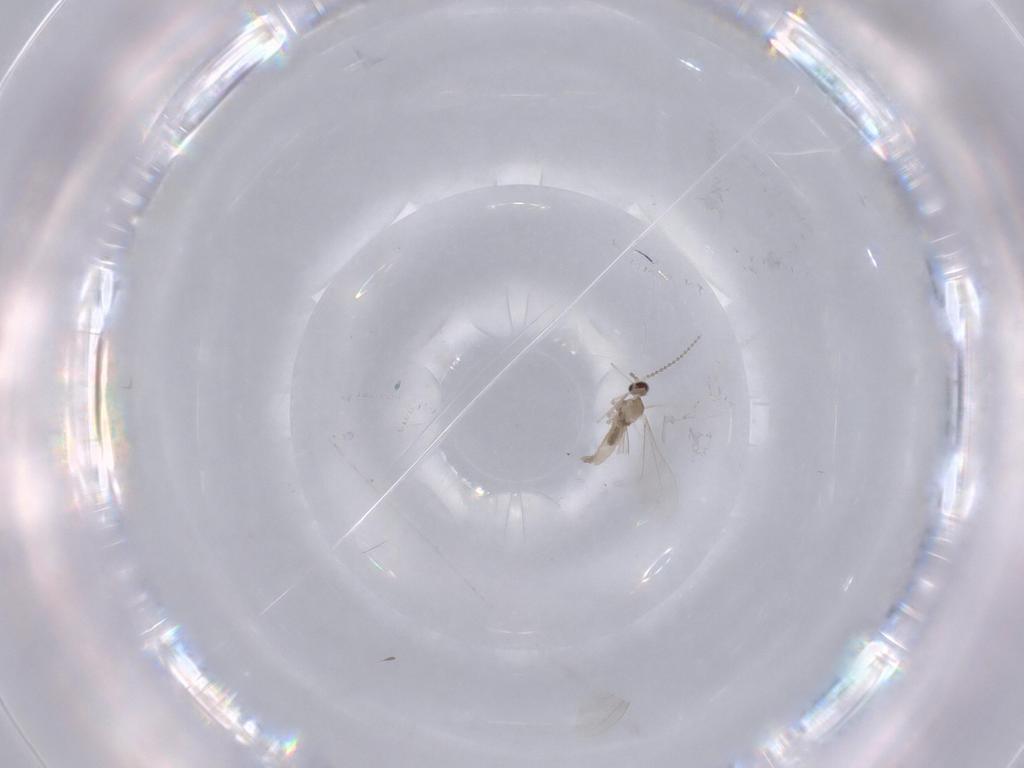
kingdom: Animalia
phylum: Arthropoda
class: Insecta
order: Diptera
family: Cecidomyiidae
